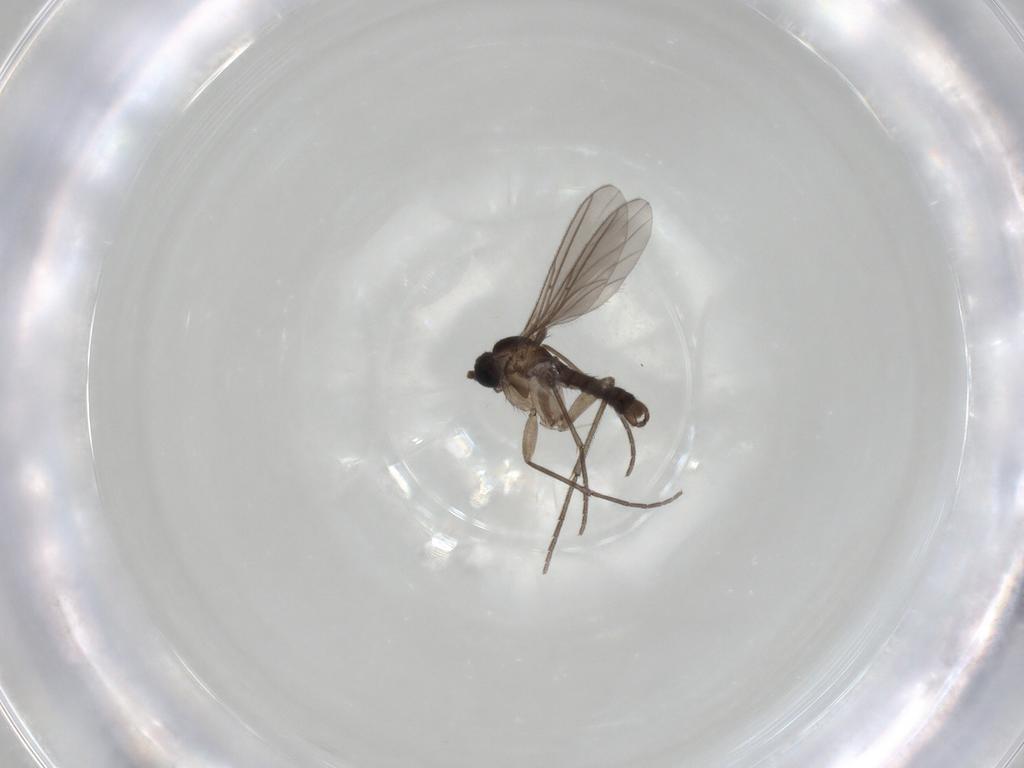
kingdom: Animalia
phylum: Arthropoda
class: Insecta
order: Diptera
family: Sciaridae
